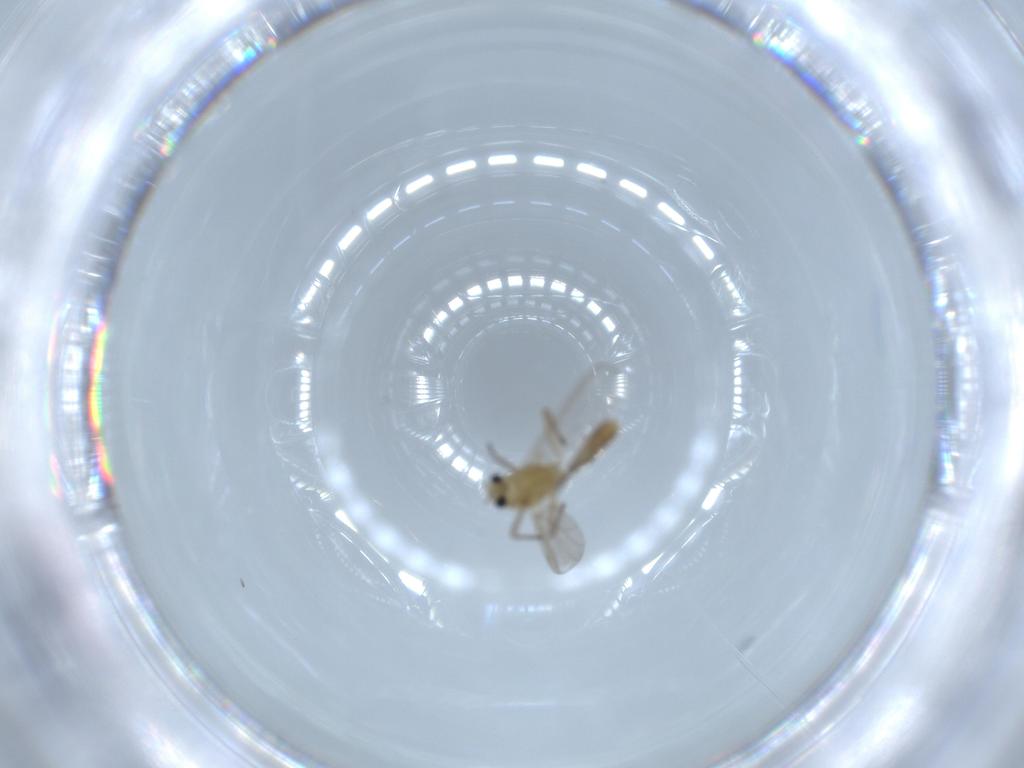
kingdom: Animalia
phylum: Arthropoda
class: Insecta
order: Diptera
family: Chironomidae
